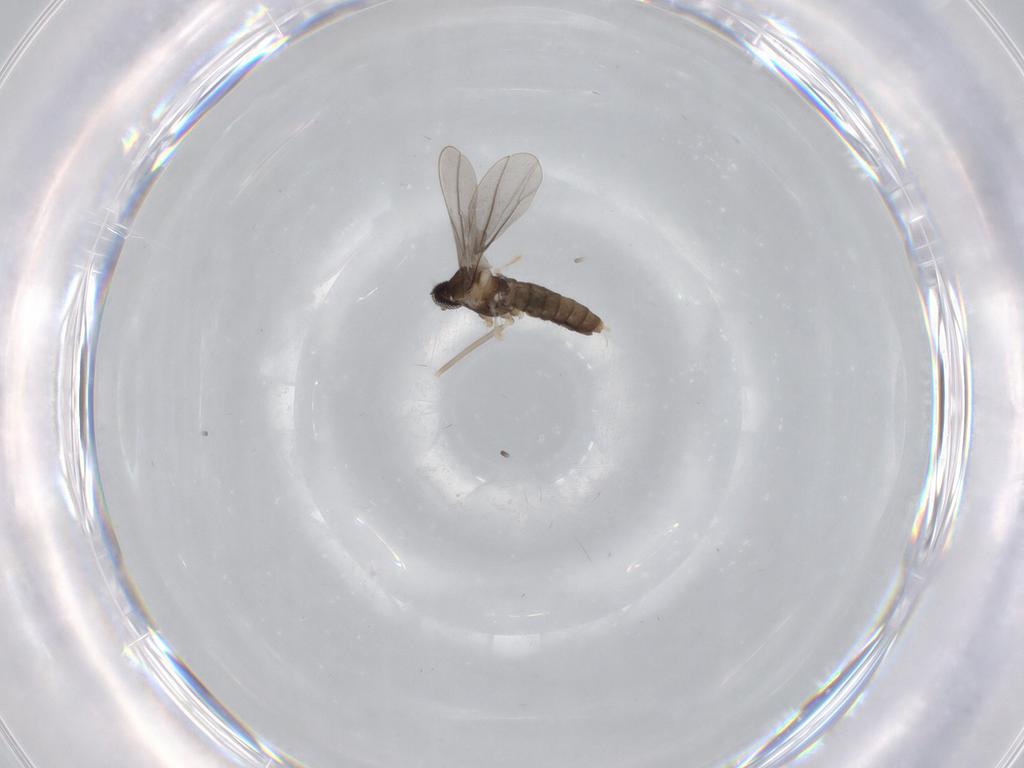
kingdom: Animalia
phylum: Arthropoda
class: Insecta
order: Diptera
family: Cecidomyiidae
